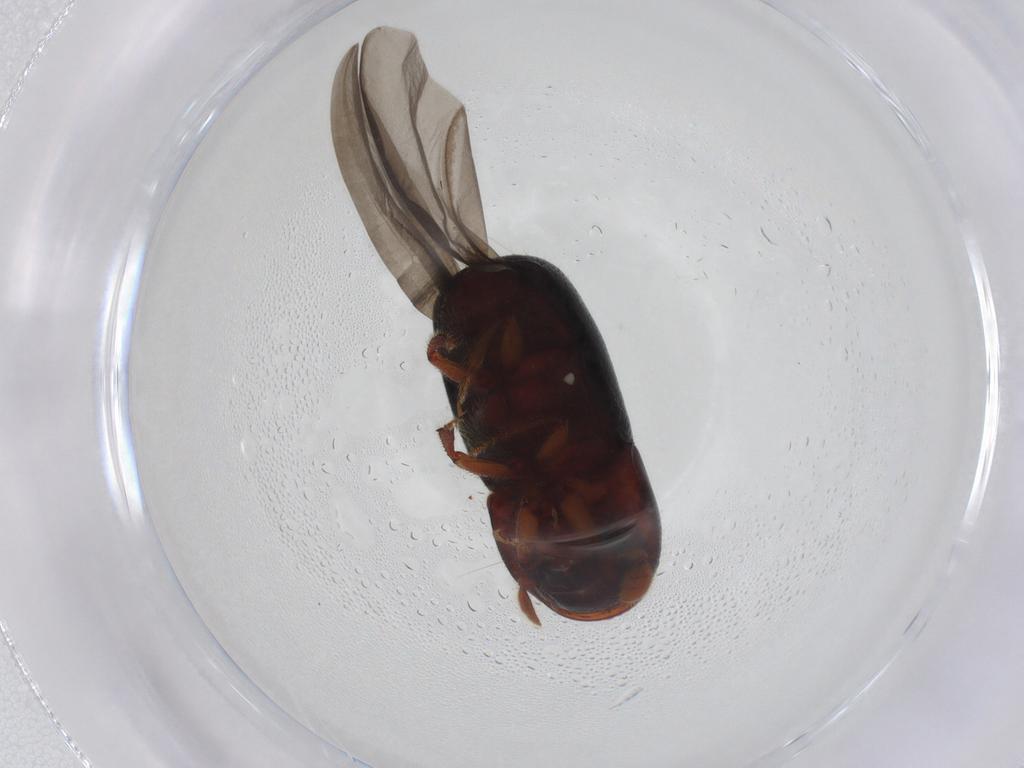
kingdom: Animalia
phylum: Arthropoda
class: Insecta
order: Coleoptera
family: Curculionidae
